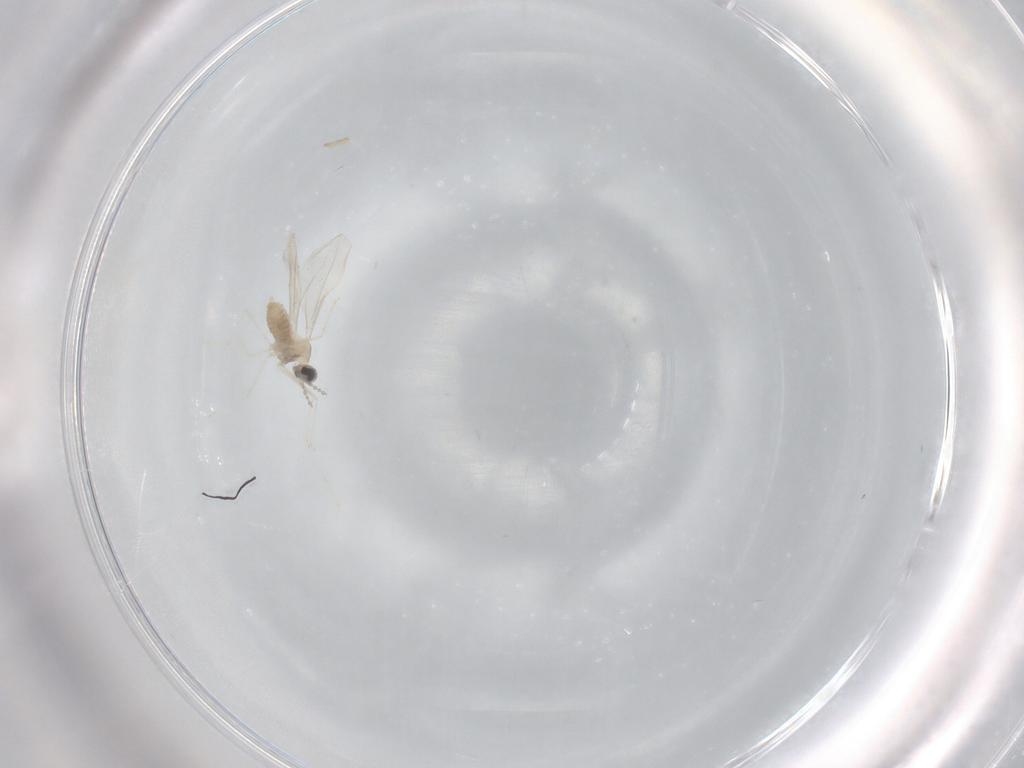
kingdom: Animalia
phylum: Arthropoda
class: Insecta
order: Diptera
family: Cecidomyiidae
